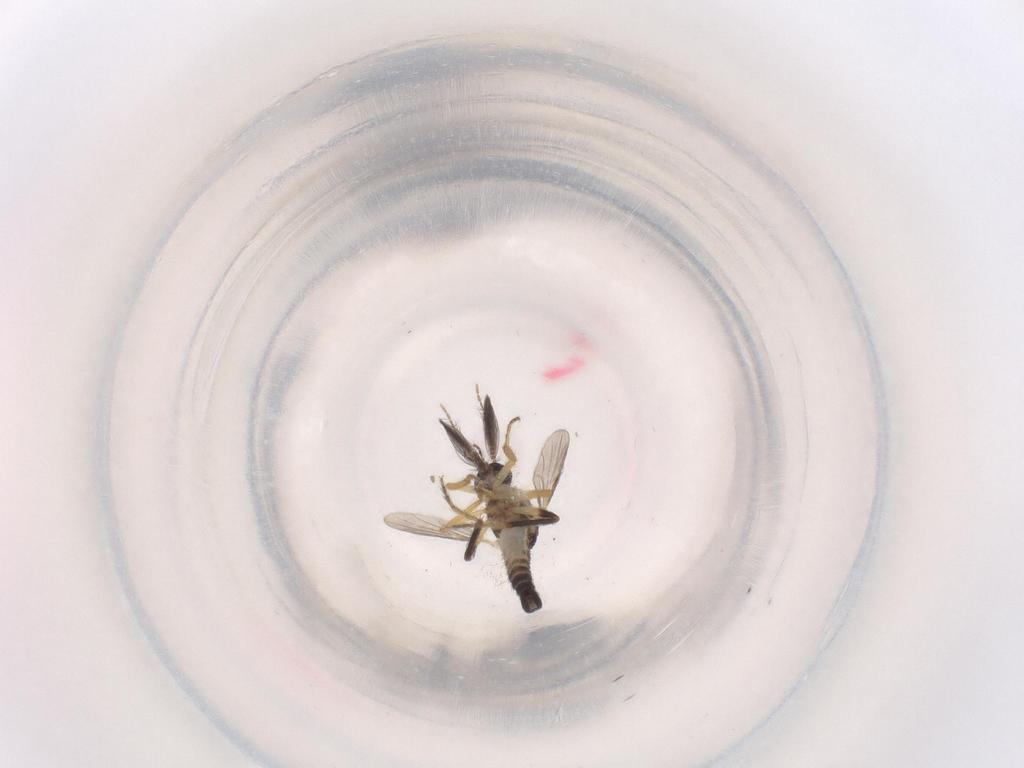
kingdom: Animalia
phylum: Arthropoda
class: Insecta
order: Diptera
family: Ceratopogonidae
